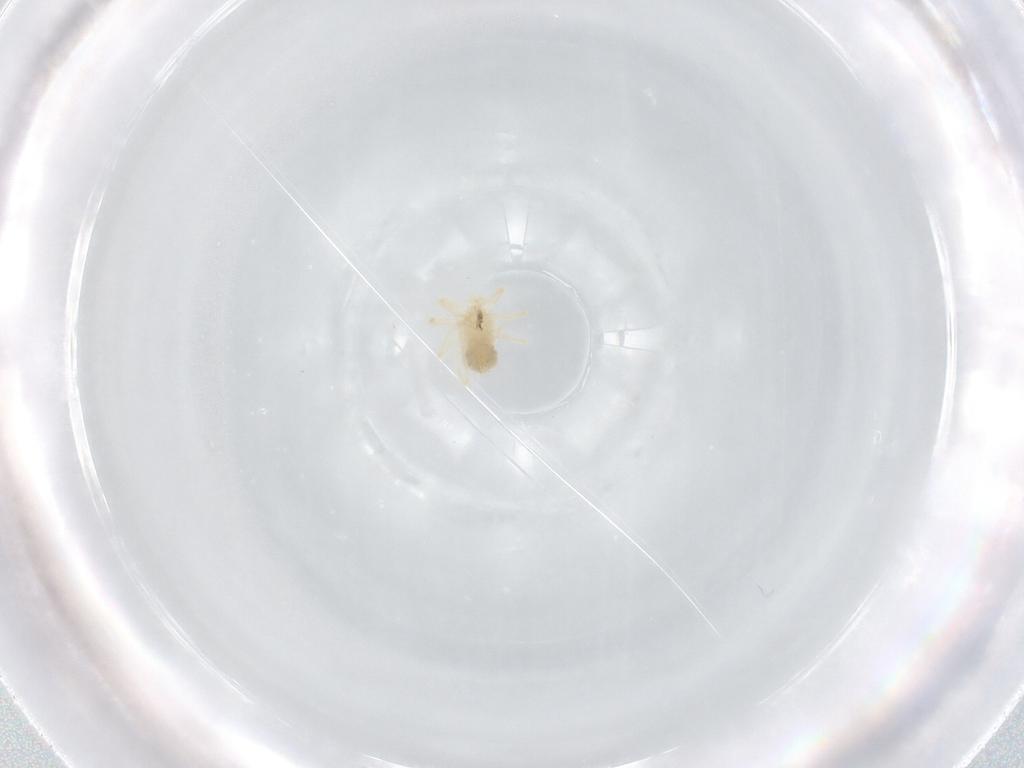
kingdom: Animalia
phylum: Arthropoda
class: Arachnida
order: Trombidiformes
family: Anystidae
